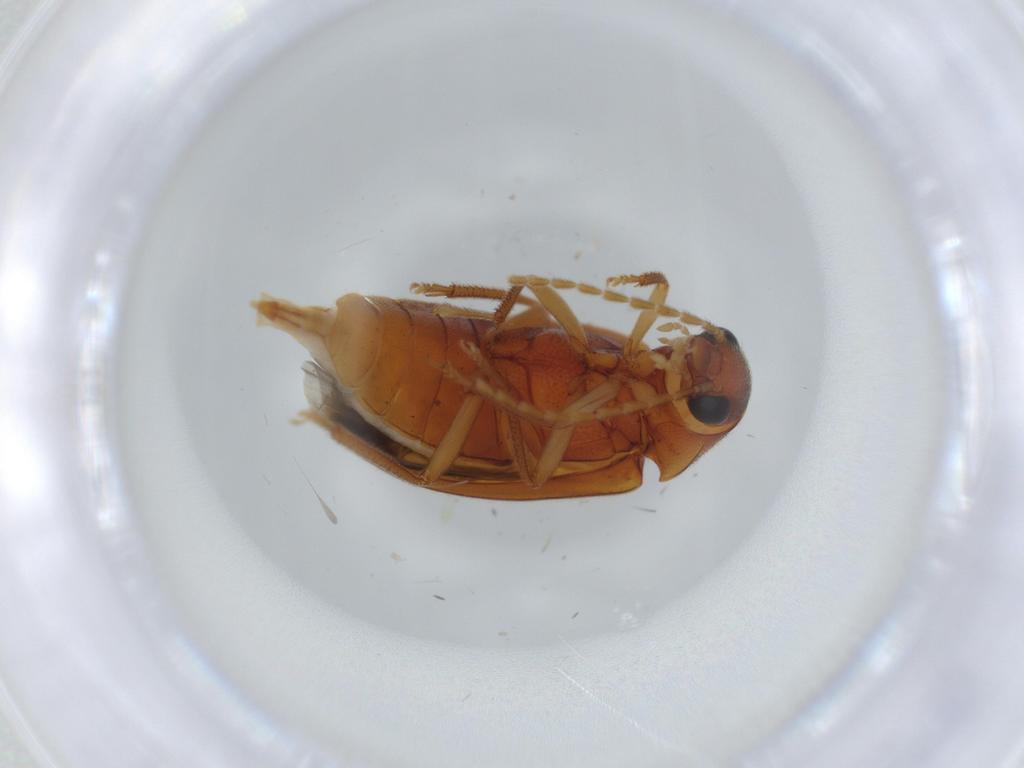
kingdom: Animalia
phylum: Arthropoda
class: Insecta
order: Coleoptera
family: Ptilodactylidae
